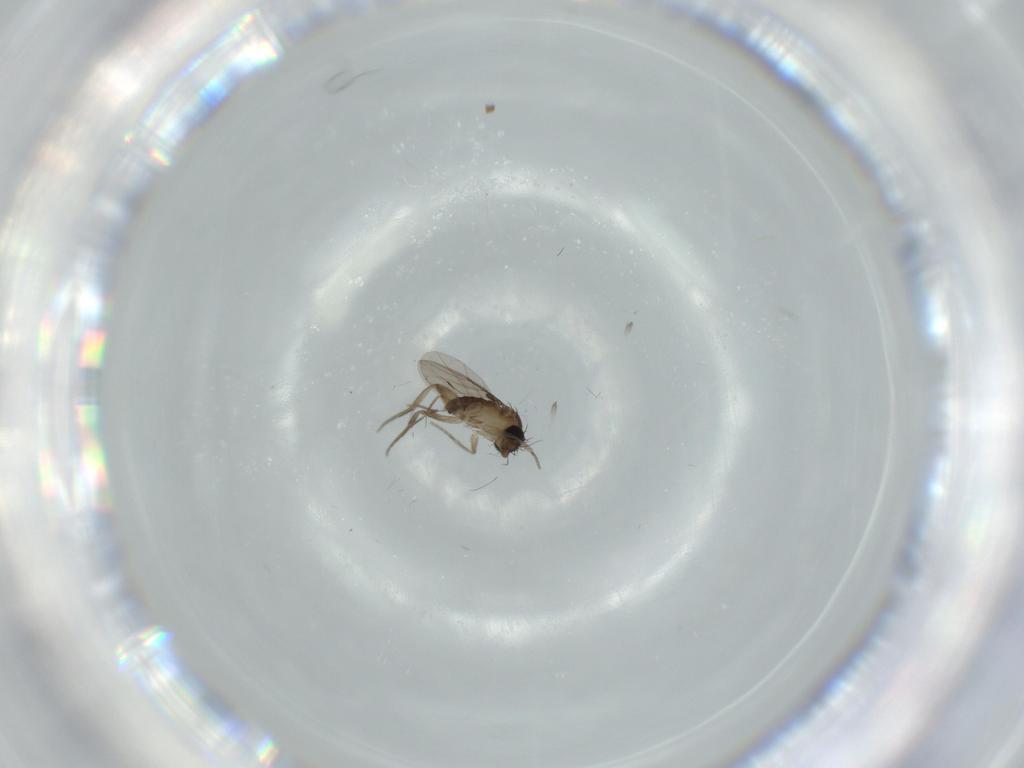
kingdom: Animalia
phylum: Arthropoda
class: Insecta
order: Diptera
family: Phoridae
